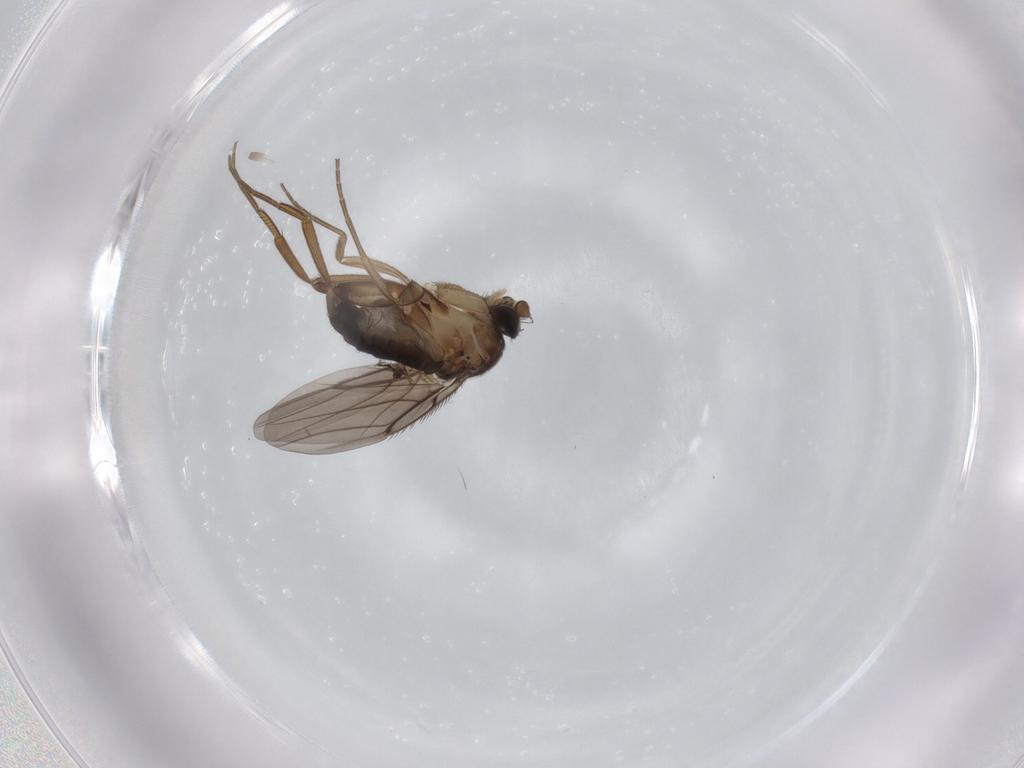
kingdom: Animalia
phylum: Arthropoda
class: Insecta
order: Diptera
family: Phoridae
